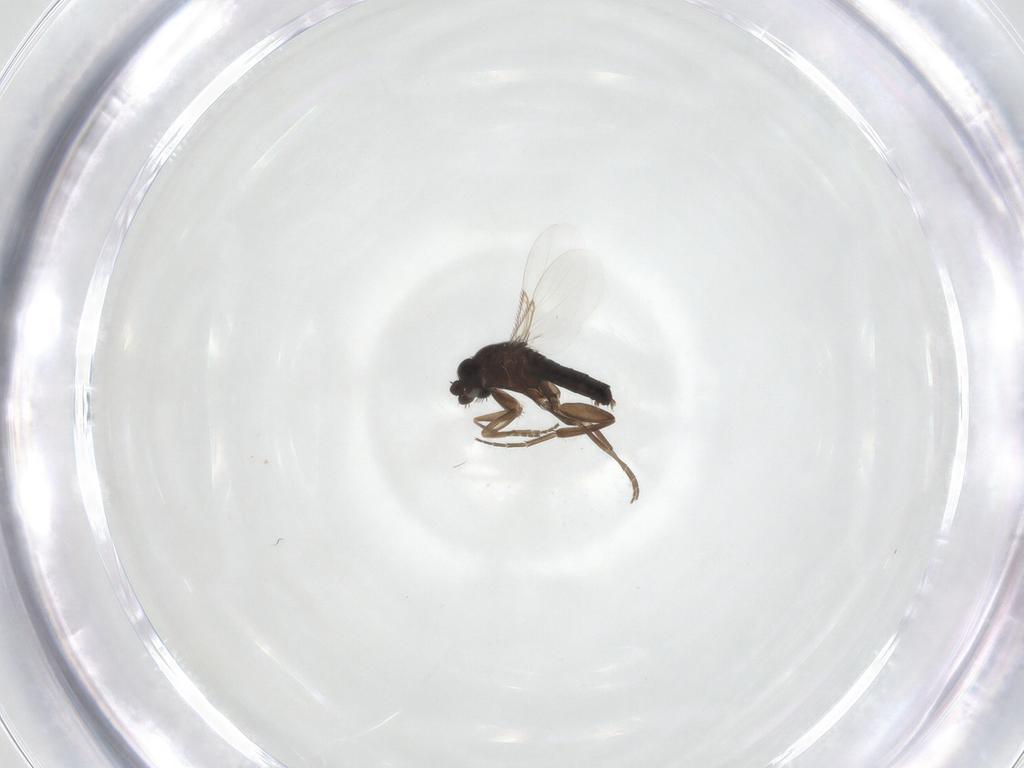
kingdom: Animalia
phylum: Arthropoda
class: Insecta
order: Diptera
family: Phoridae
